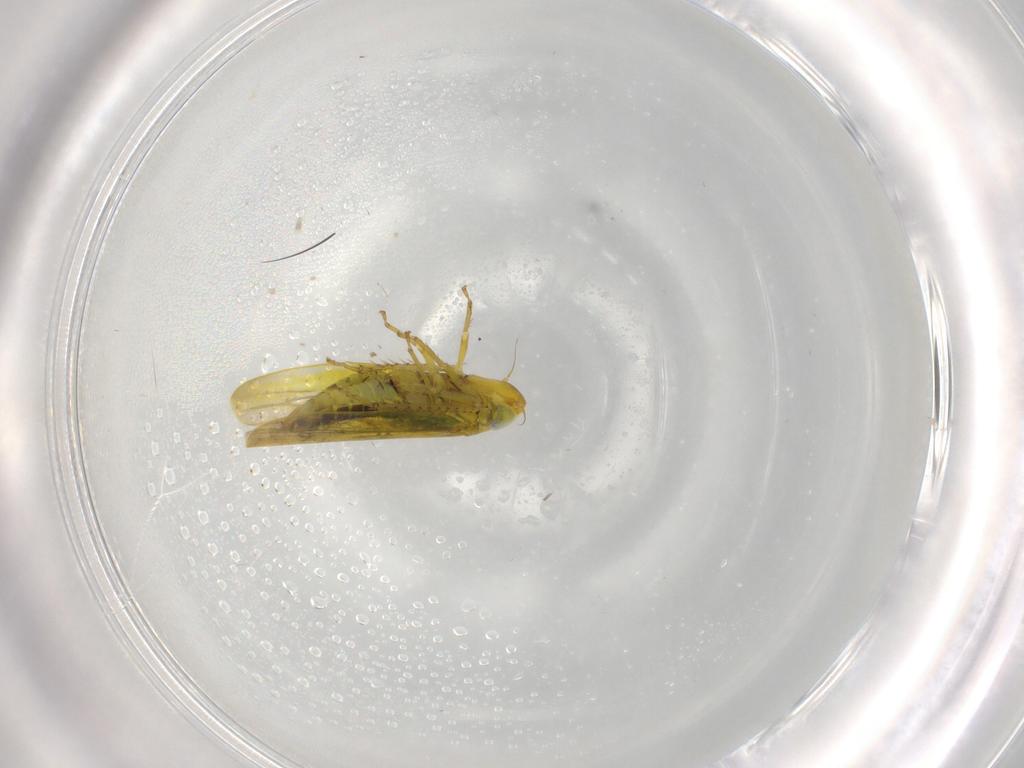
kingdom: Animalia
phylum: Arthropoda
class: Insecta
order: Hemiptera
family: Cicadellidae
